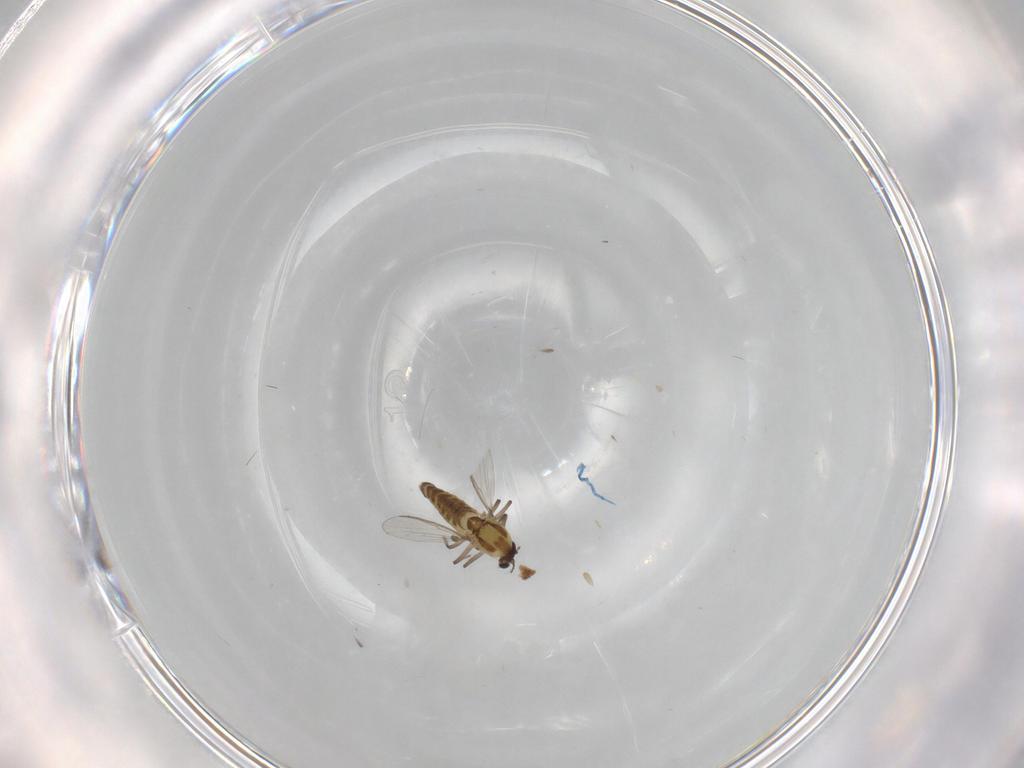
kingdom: Animalia
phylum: Arthropoda
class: Insecta
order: Diptera
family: Chironomidae
